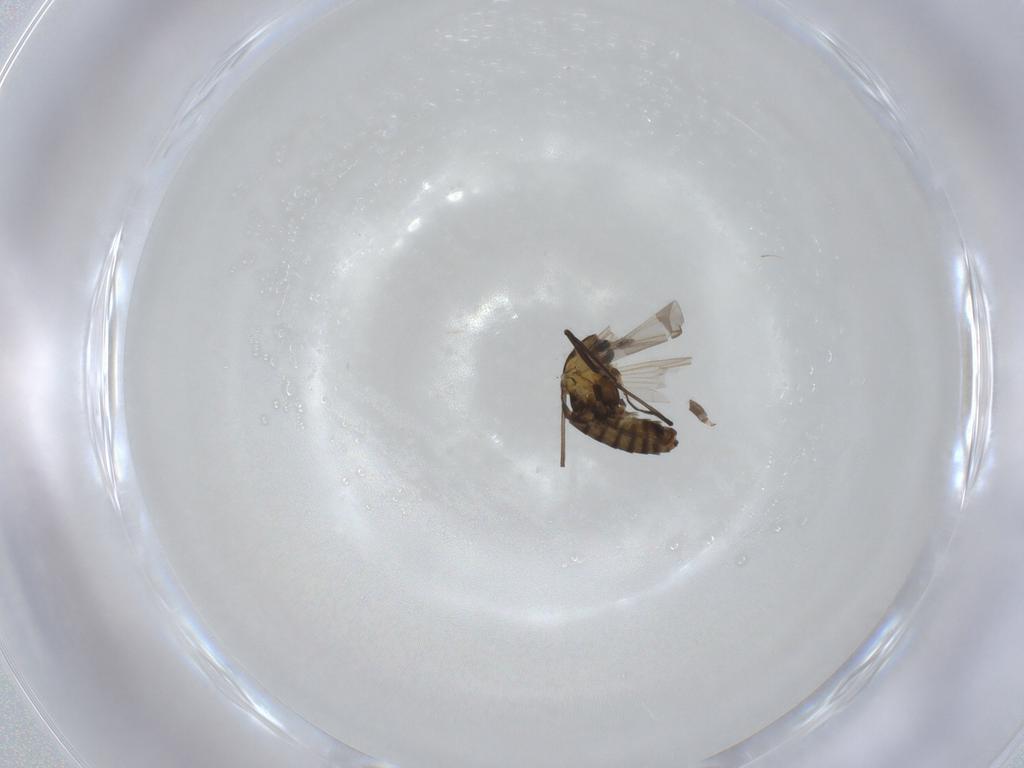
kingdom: Animalia
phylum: Arthropoda
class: Insecta
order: Diptera
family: Chironomidae
